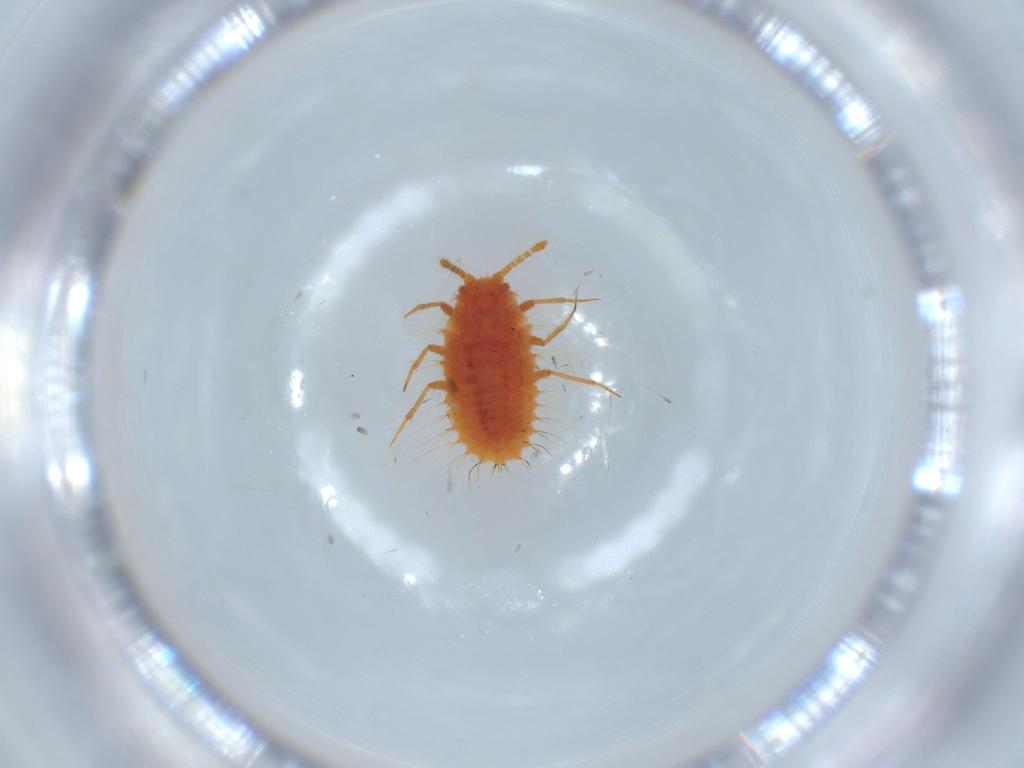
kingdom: Animalia
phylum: Arthropoda
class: Insecta
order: Hemiptera
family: Coccoidea_incertae_sedis
